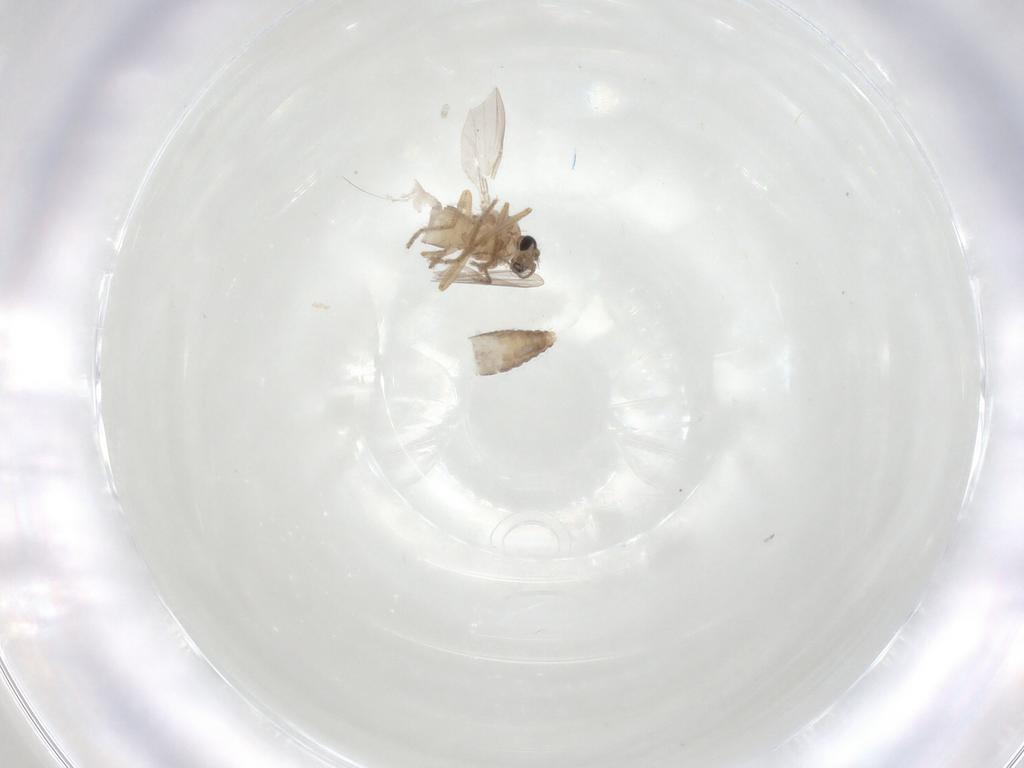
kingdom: Animalia
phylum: Arthropoda
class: Insecta
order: Diptera
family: Ceratopogonidae
